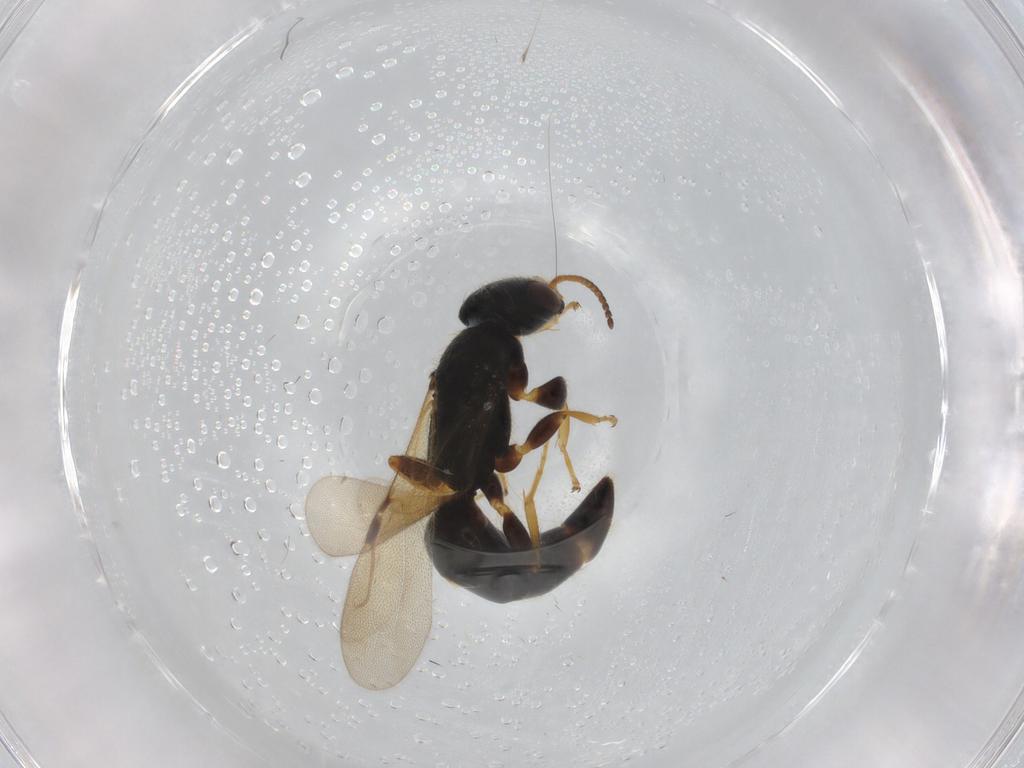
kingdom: Animalia
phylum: Arthropoda
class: Insecta
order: Hymenoptera
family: Bethylidae
